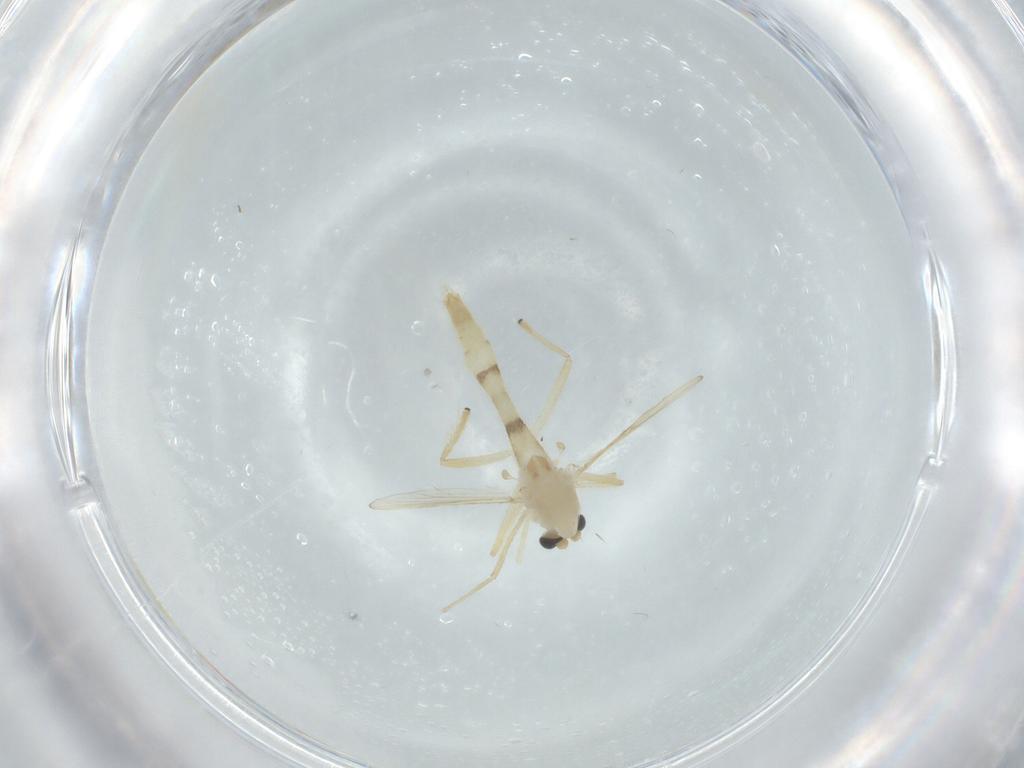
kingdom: Animalia
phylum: Arthropoda
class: Insecta
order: Diptera
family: Chironomidae
